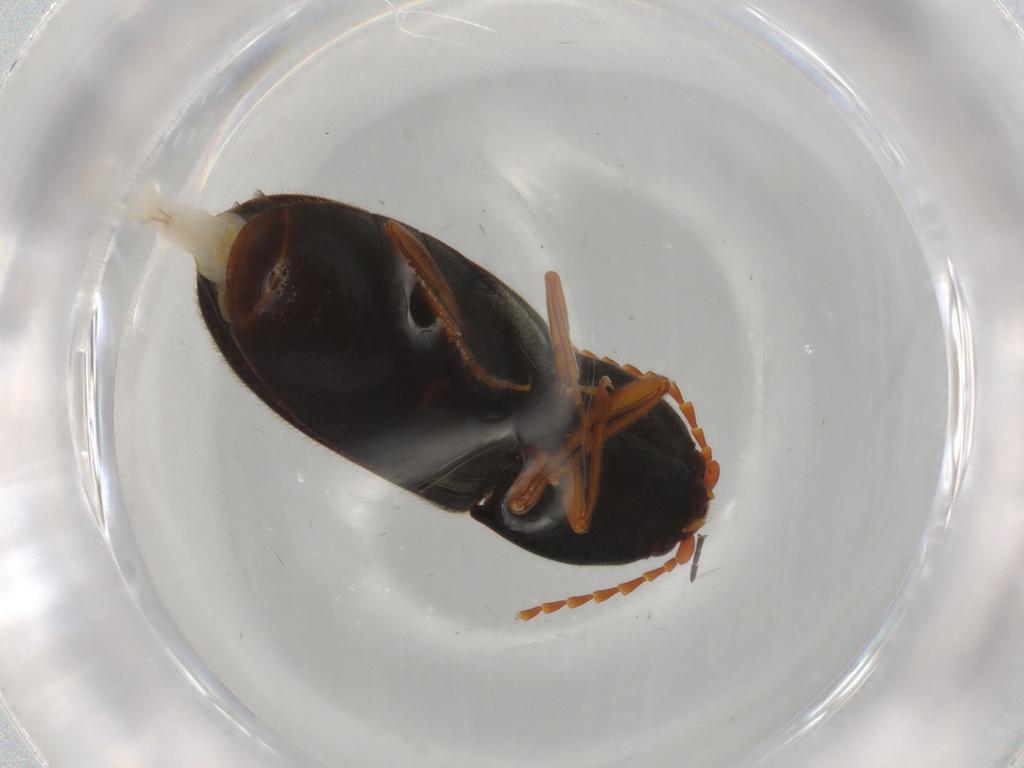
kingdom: Animalia
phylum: Arthropoda
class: Insecta
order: Coleoptera
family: Elateridae
